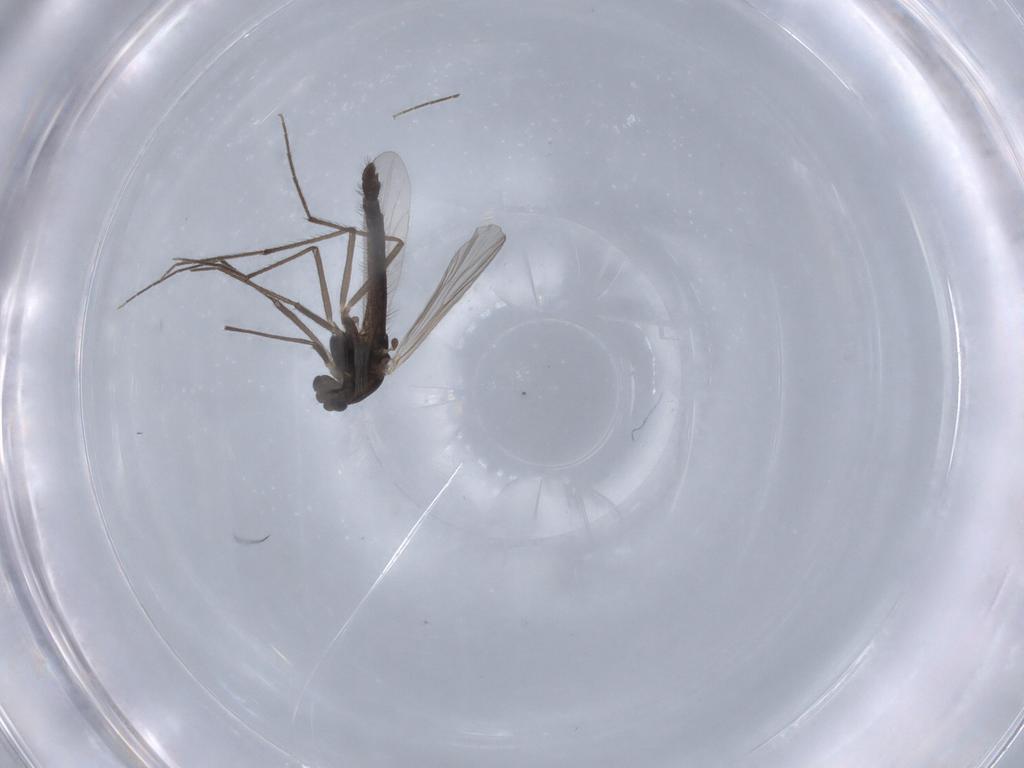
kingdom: Animalia
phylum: Arthropoda
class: Insecta
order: Diptera
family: Chironomidae
